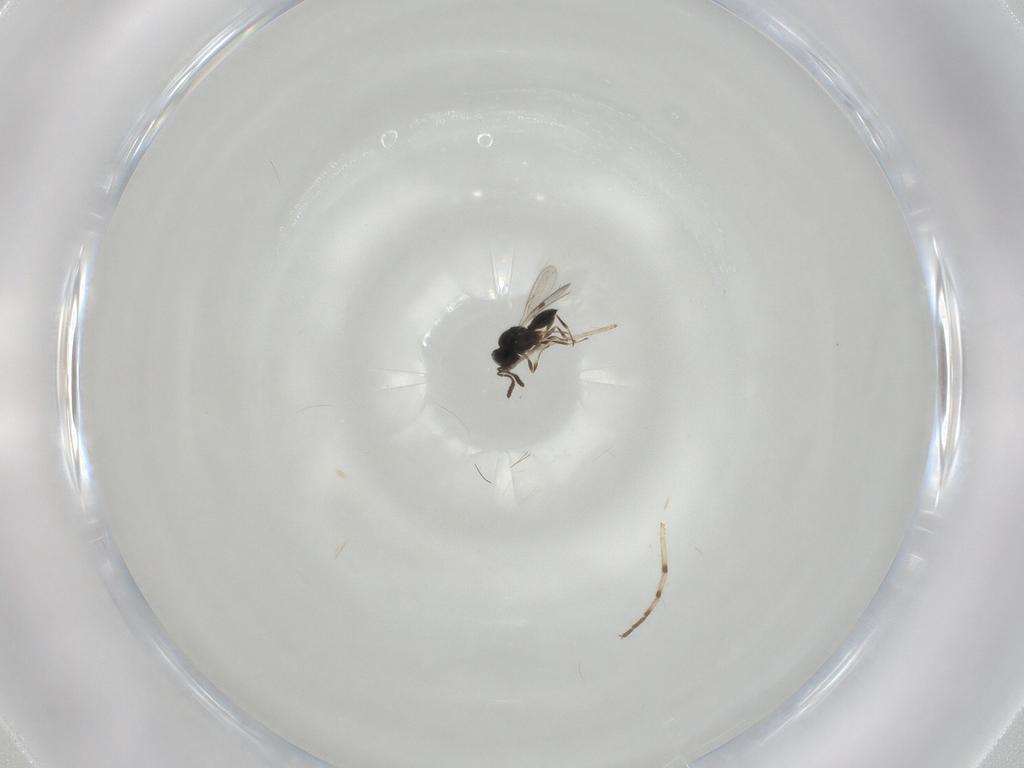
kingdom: Animalia
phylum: Arthropoda
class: Insecta
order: Hymenoptera
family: Scelionidae
